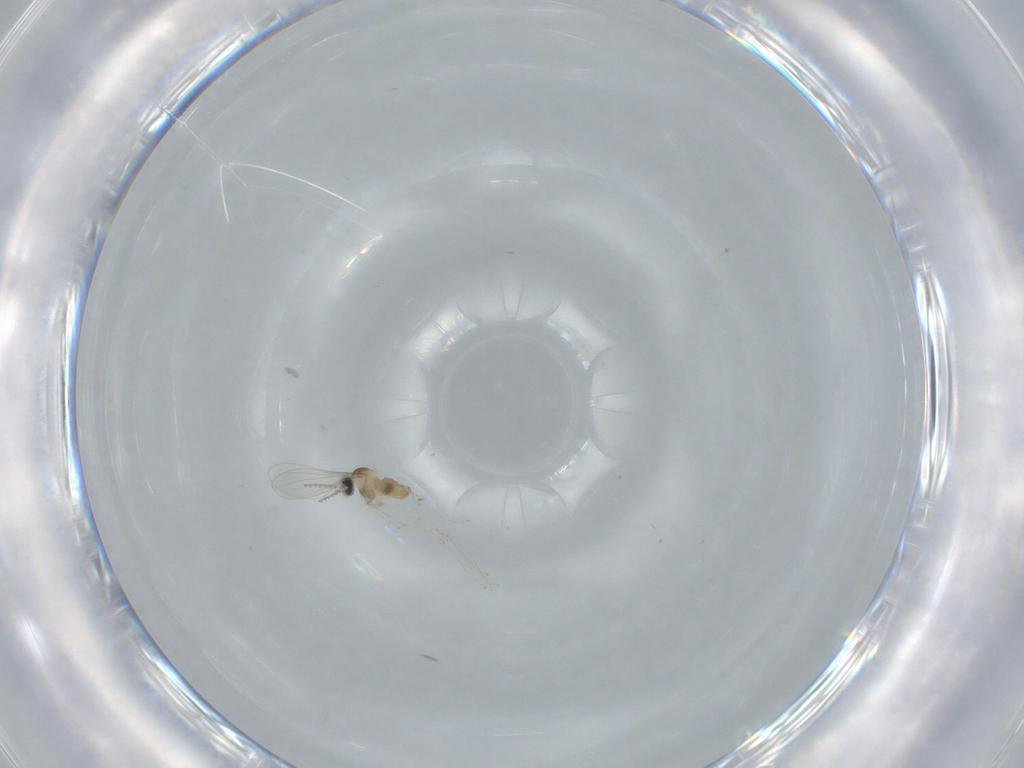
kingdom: Animalia
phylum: Arthropoda
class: Insecta
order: Diptera
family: Cecidomyiidae
